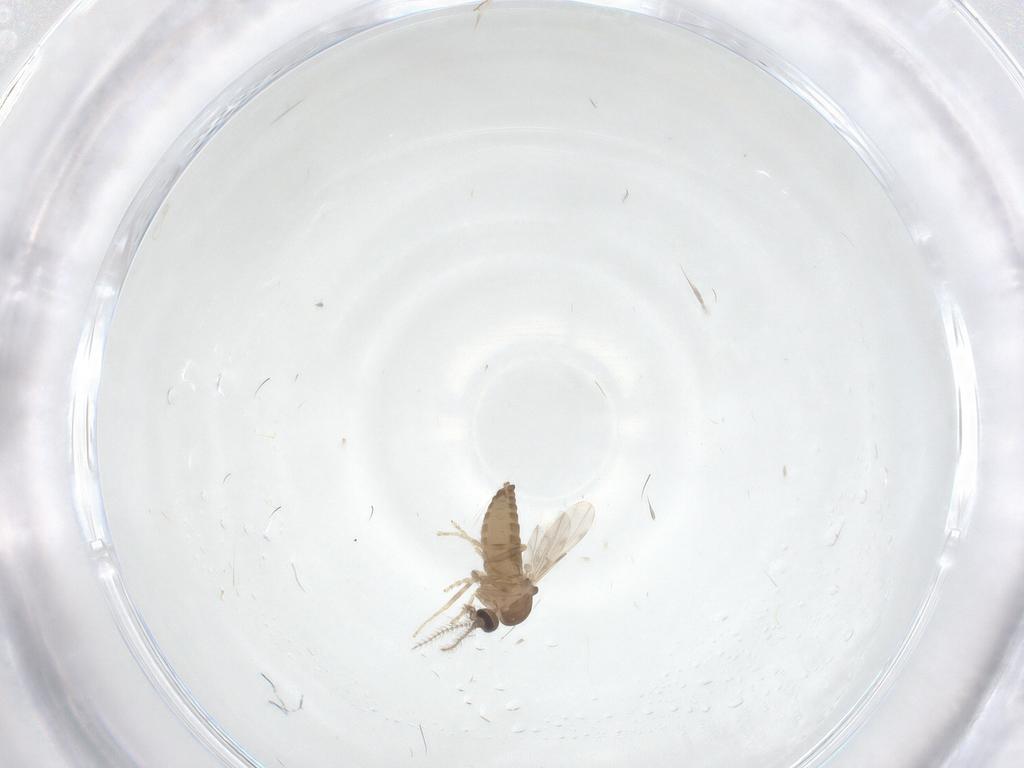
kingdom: Animalia
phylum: Arthropoda
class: Insecta
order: Diptera
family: Ceratopogonidae
